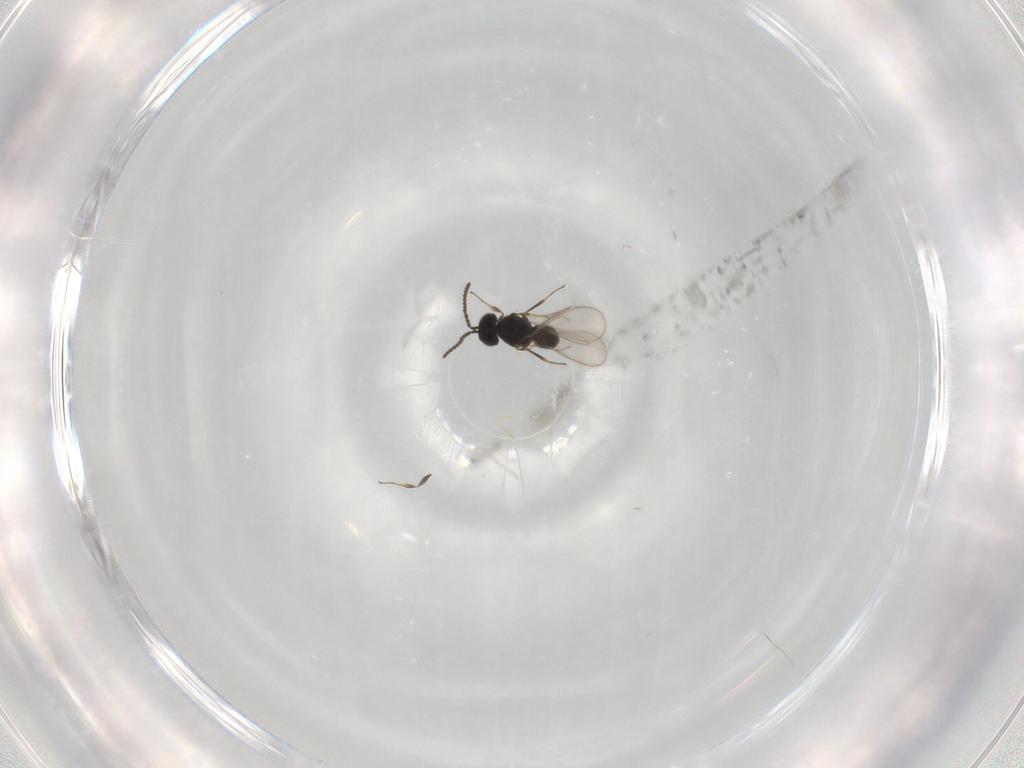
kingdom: Animalia
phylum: Arthropoda
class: Insecta
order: Hymenoptera
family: Scelionidae
